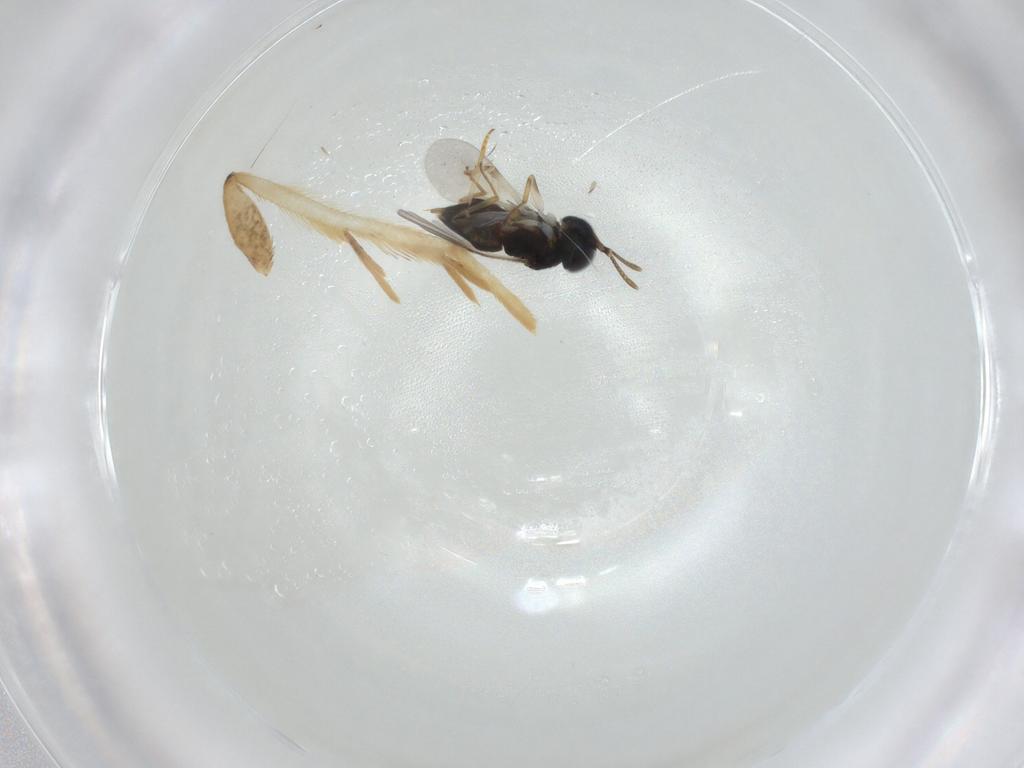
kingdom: Animalia
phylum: Arthropoda
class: Insecta
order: Hymenoptera
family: Encyrtidae
